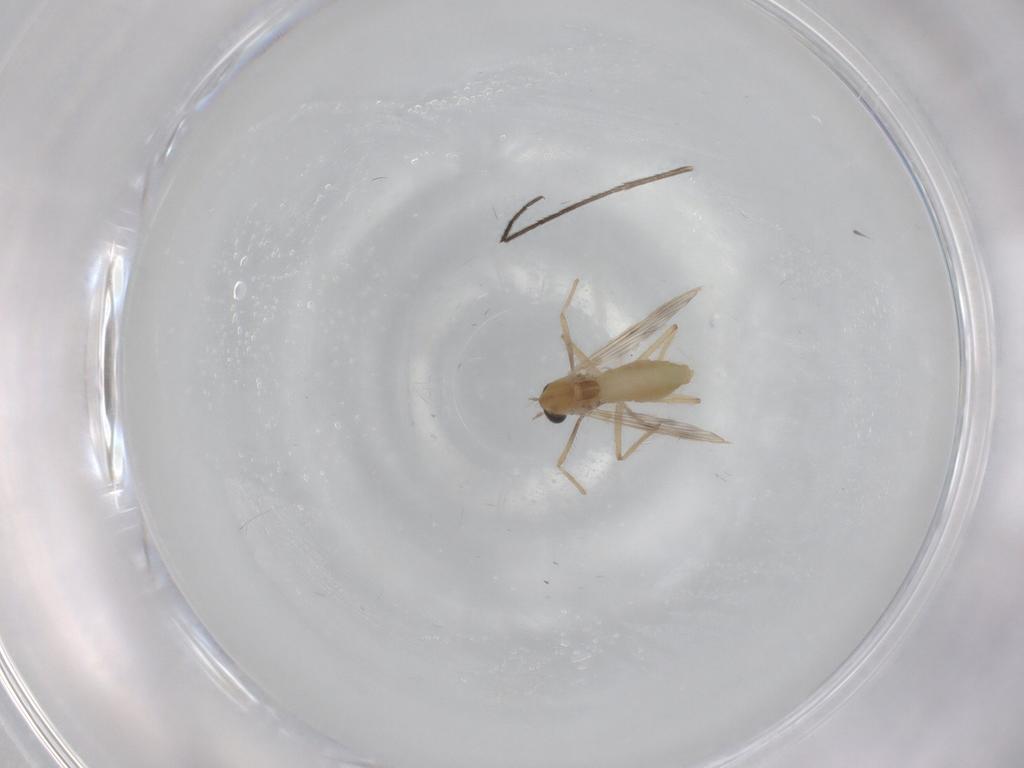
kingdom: Animalia
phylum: Arthropoda
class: Insecta
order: Diptera
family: Chironomidae
